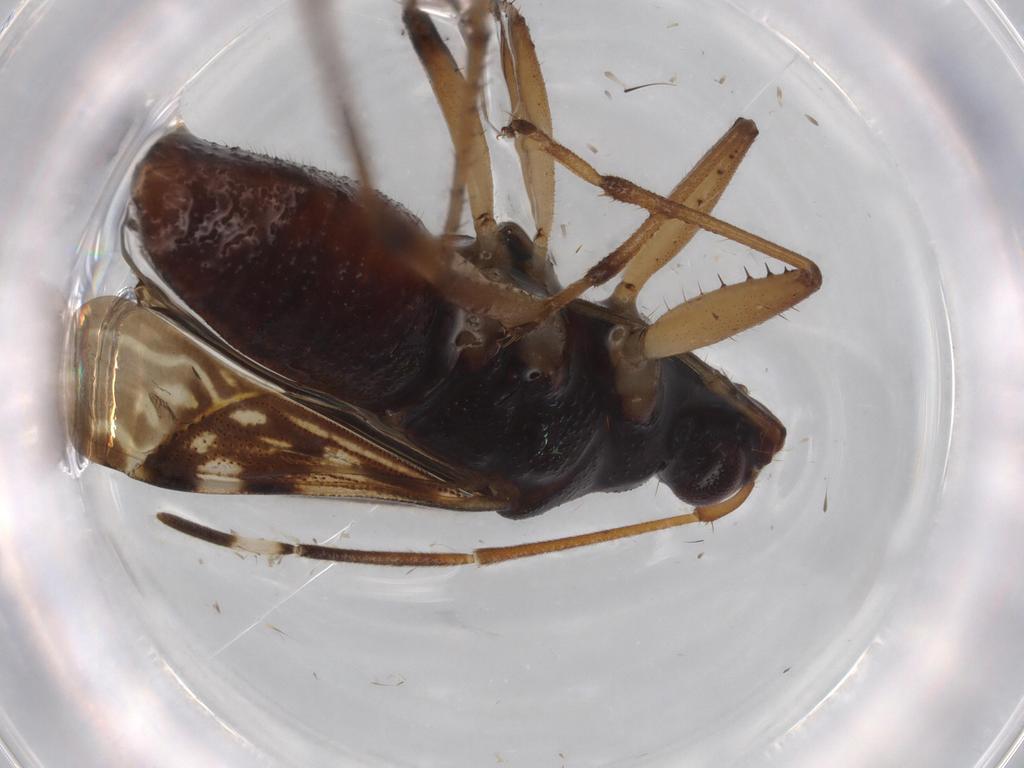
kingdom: Animalia
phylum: Arthropoda
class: Insecta
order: Hemiptera
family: Rhyparochromidae
